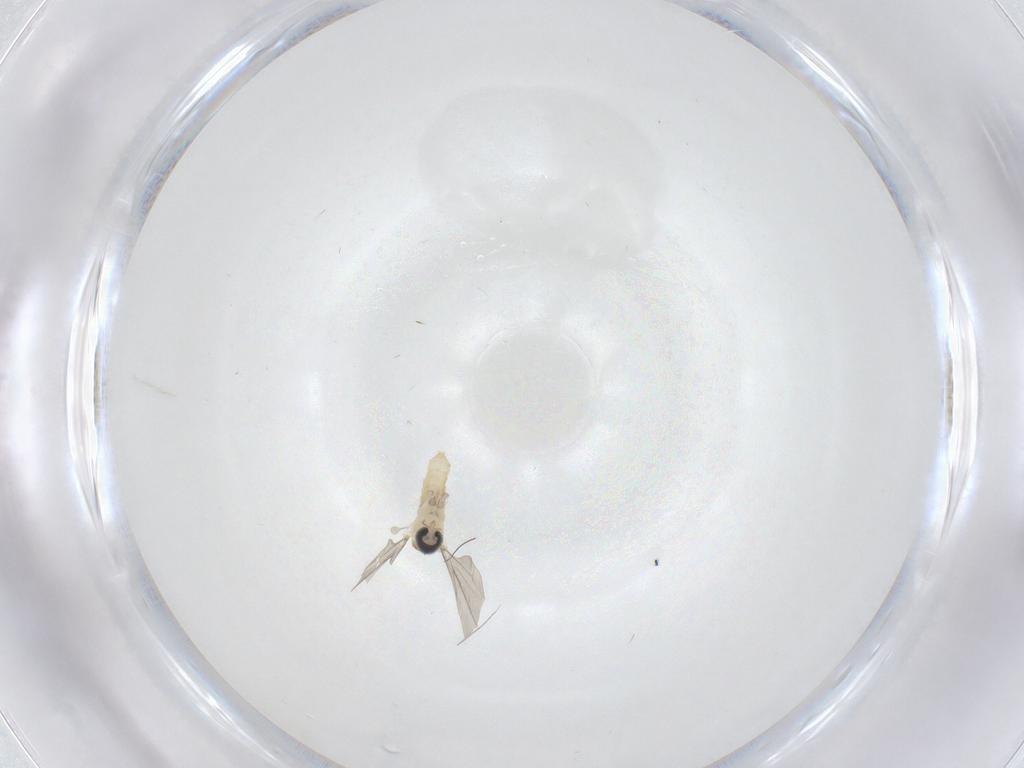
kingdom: Animalia
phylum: Arthropoda
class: Insecta
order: Diptera
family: Cecidomyiidae
